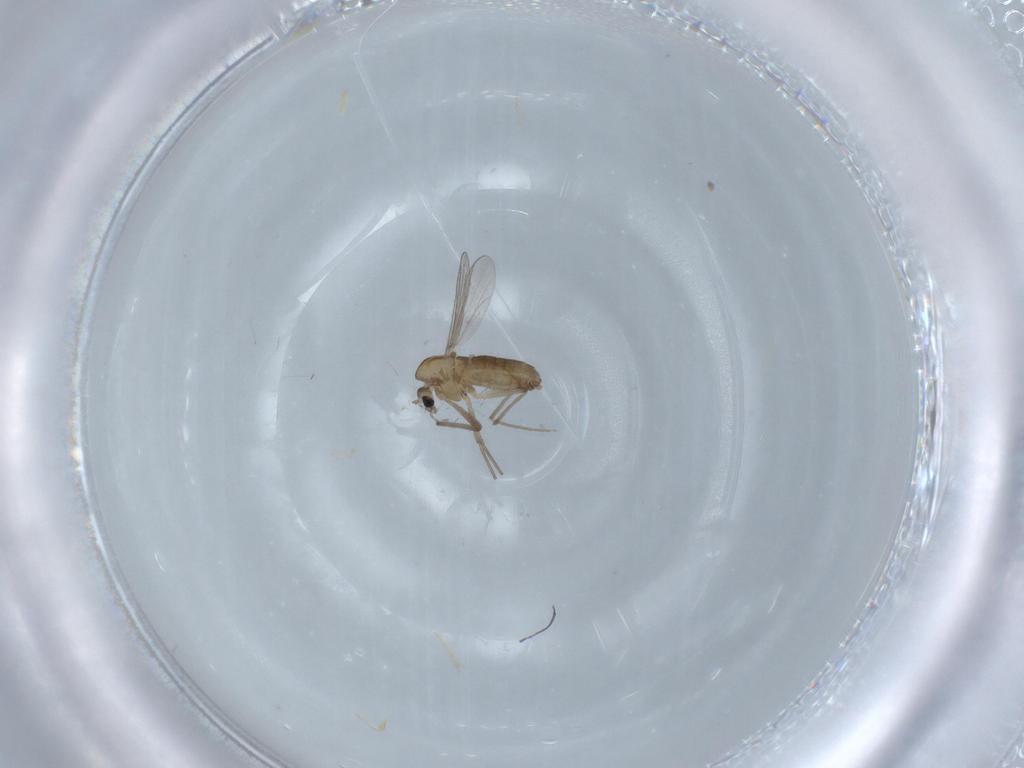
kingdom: Animalia
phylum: Arthropoda
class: Insecta
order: Diptera
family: Chironomidae
